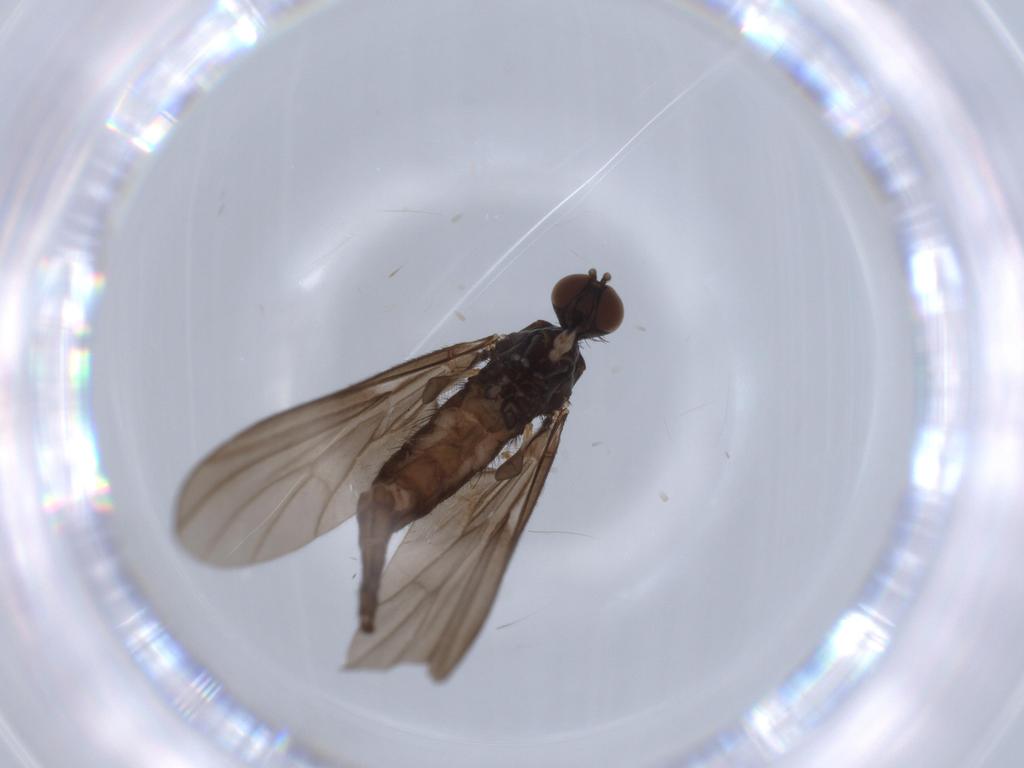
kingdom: Animalia
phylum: Arthropoda
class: Insecta
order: Diptera
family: Empididae
